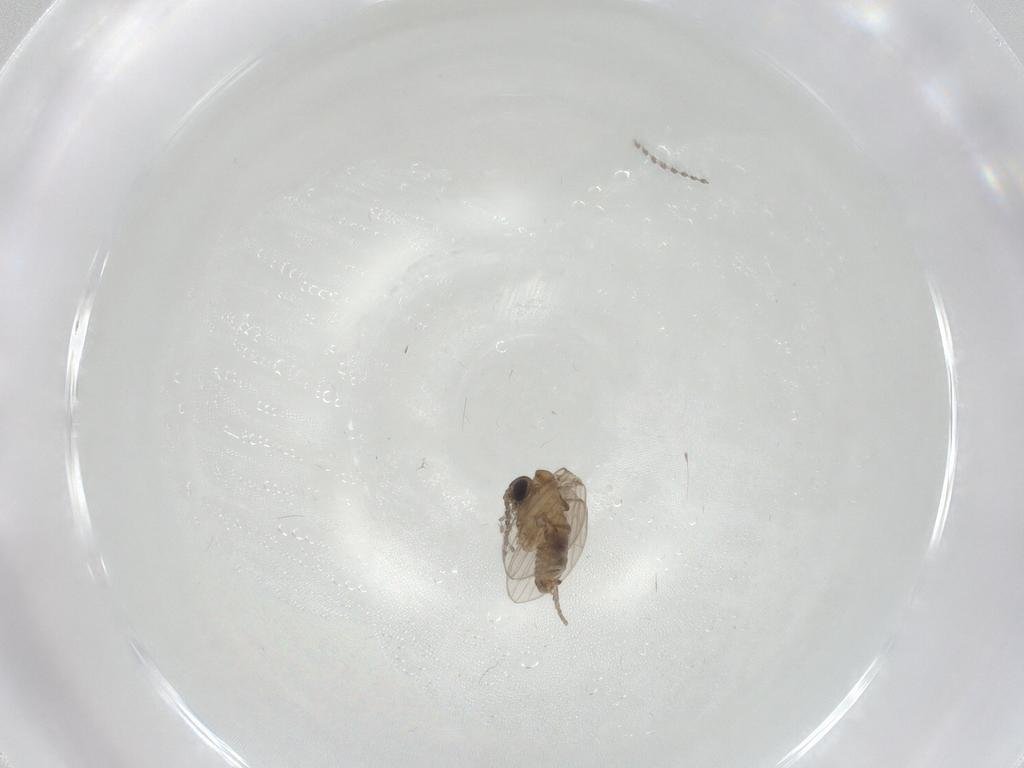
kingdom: Animalia
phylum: Arthropoda
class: Insecta
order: Diptera
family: Psychodidae
